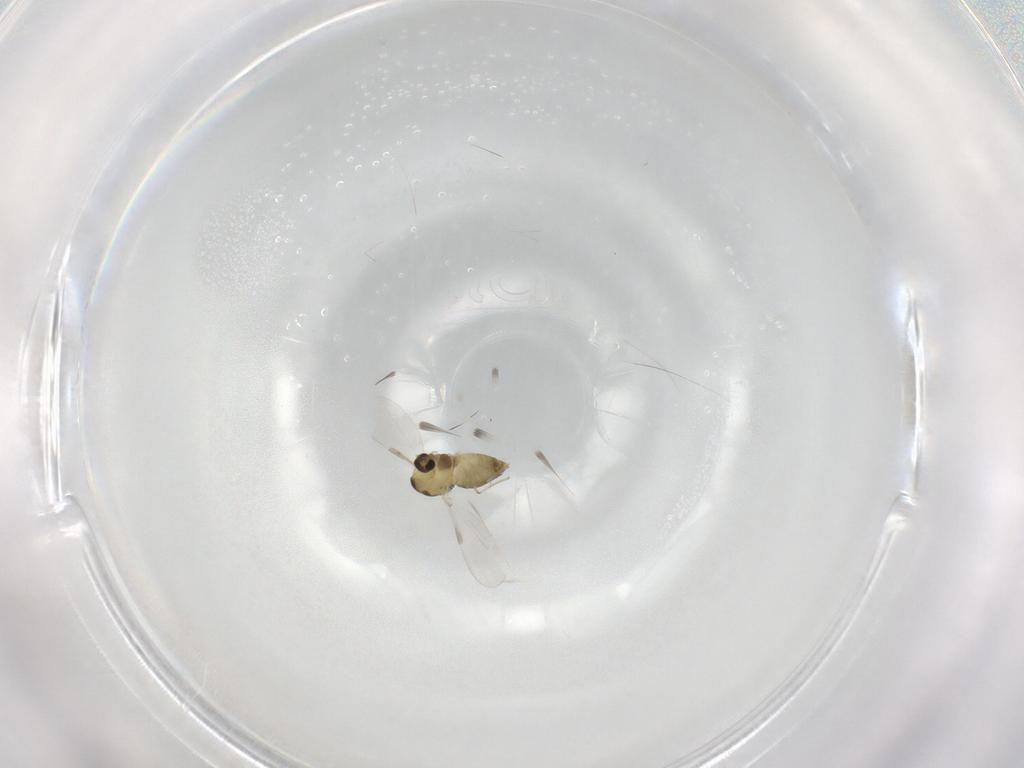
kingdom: Animalia
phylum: Arthropoda
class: Insecta
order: Diptera
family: Chironomidae
